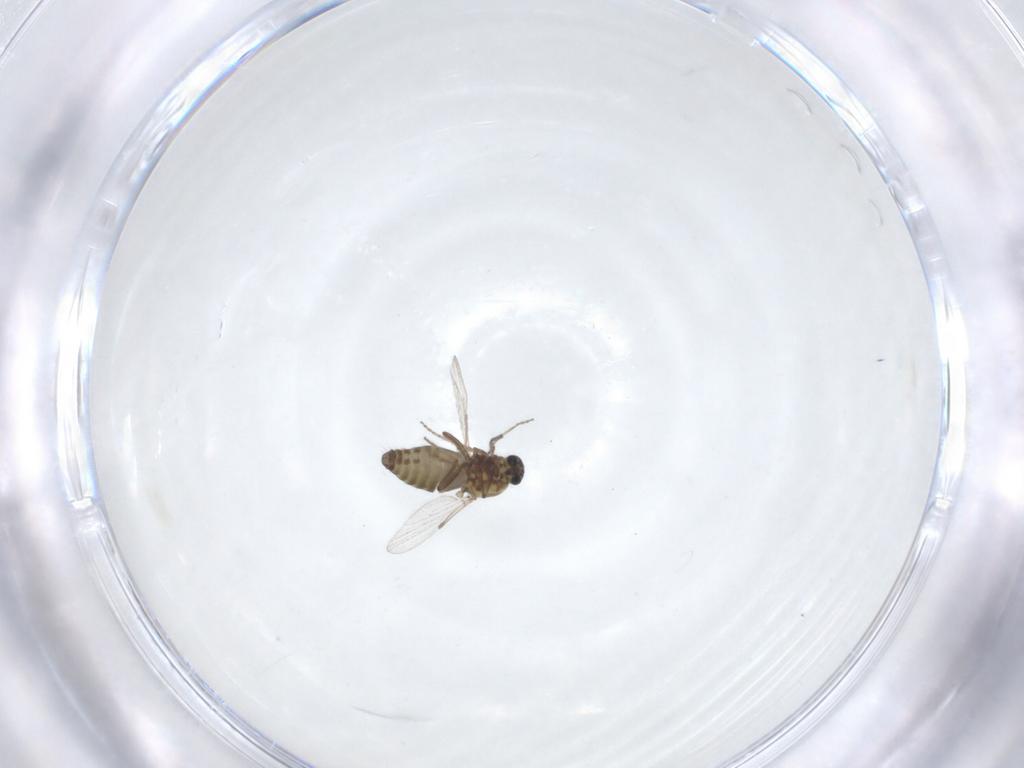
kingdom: Animalia
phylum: Arthropoda
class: Insecta
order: Diptera
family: Ceratopogonidae
